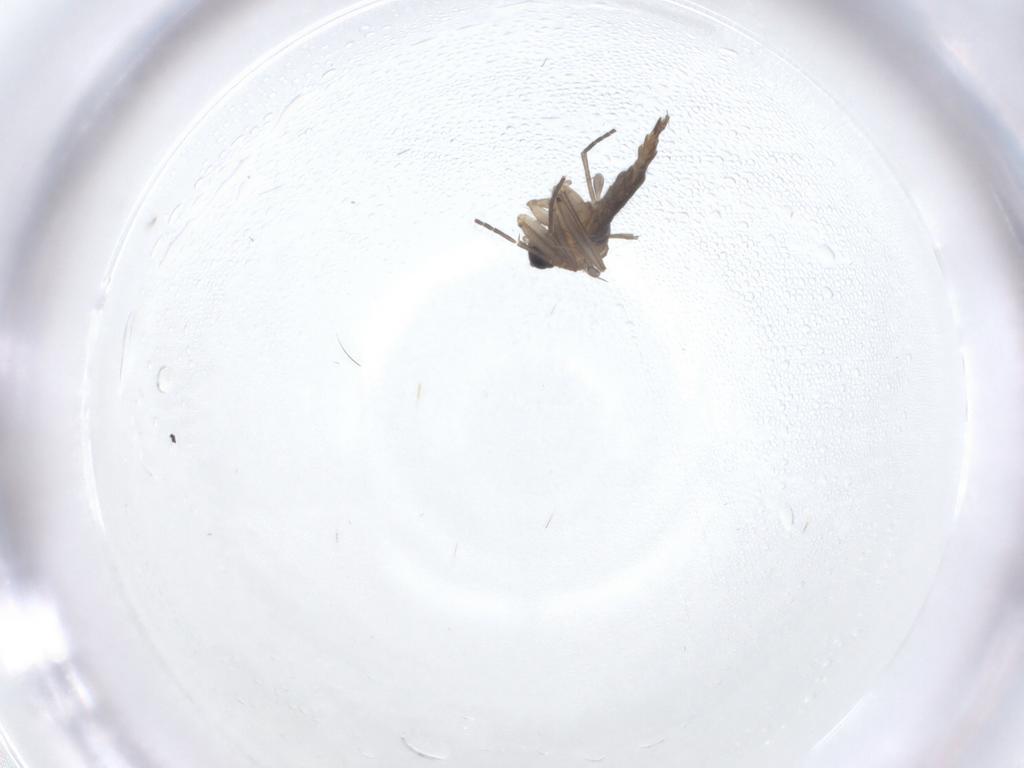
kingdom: Animalia
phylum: Arthropoda
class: Insecta
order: Diptera
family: Sciaridae
